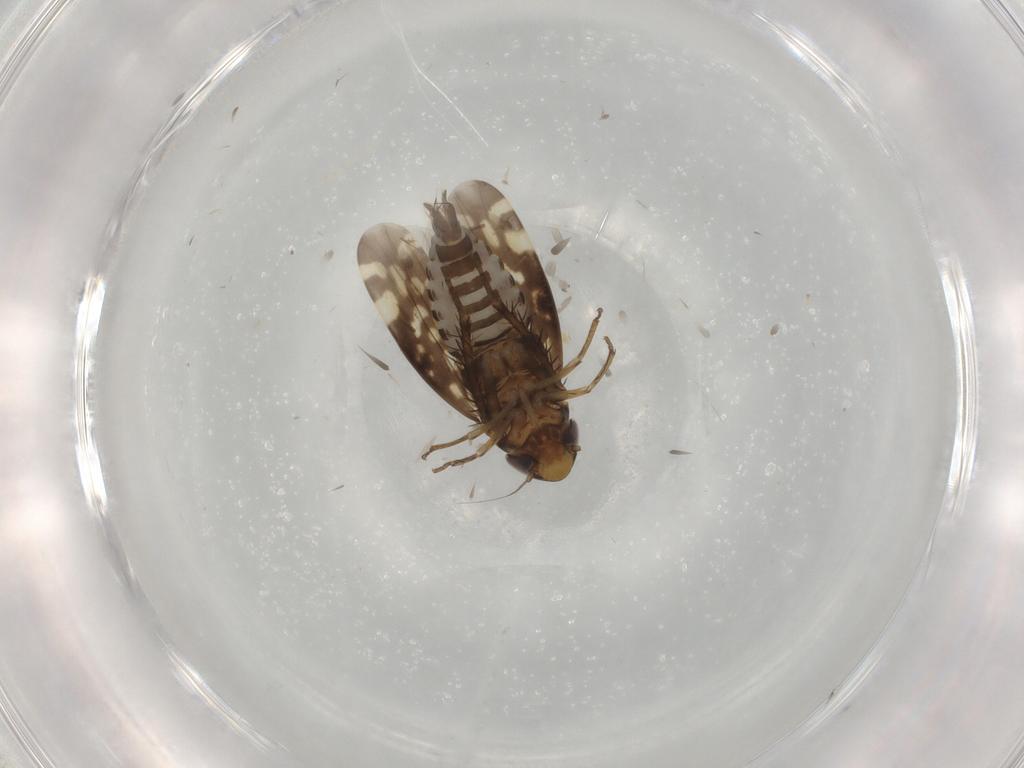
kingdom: Animalia
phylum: Arthropoda
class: Insecta
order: Hemiptera
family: Cicadellidae
